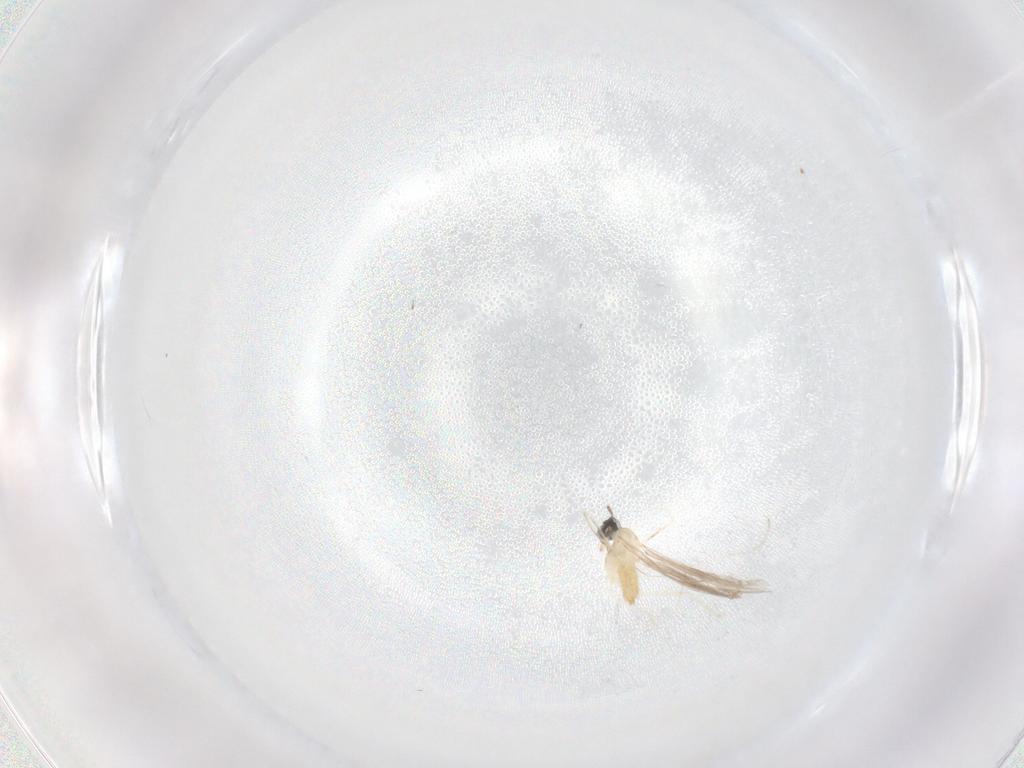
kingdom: Animalia
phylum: Arthropoda
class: Insecta
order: Diptera
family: Cecidomyiidae
